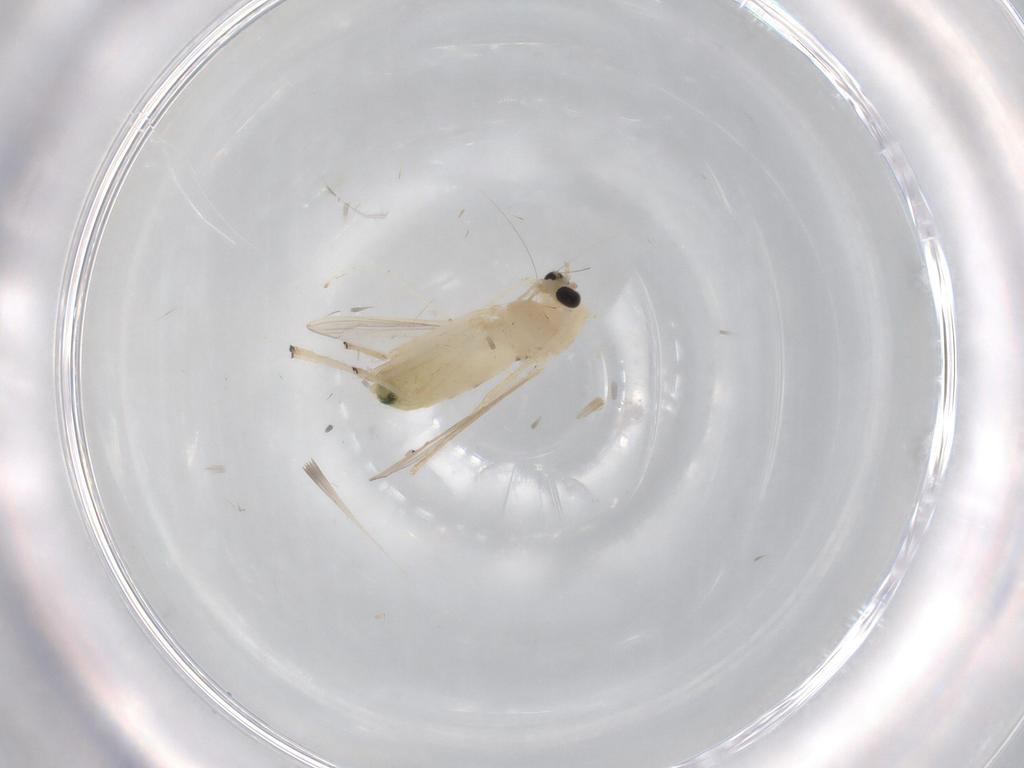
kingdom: Animalia
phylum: Arthropoda
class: Insecta
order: Diptera
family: Chironomidae
